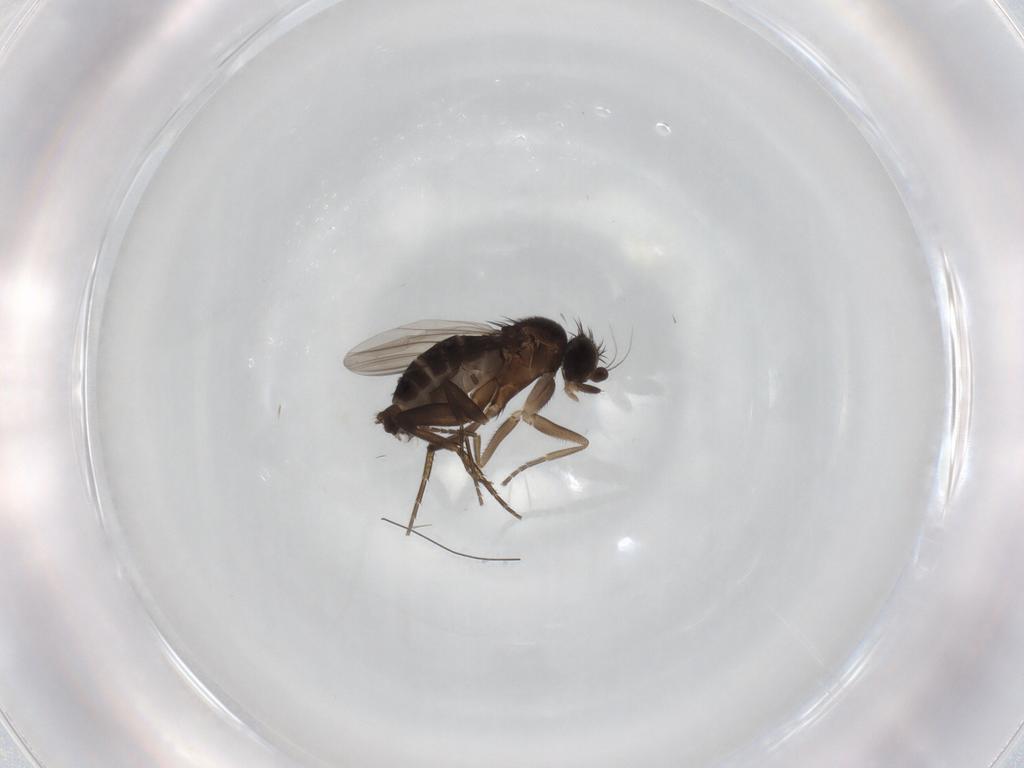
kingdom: Animalia
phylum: Arthropoda
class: Insecta
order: Diptera
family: Phoridae
